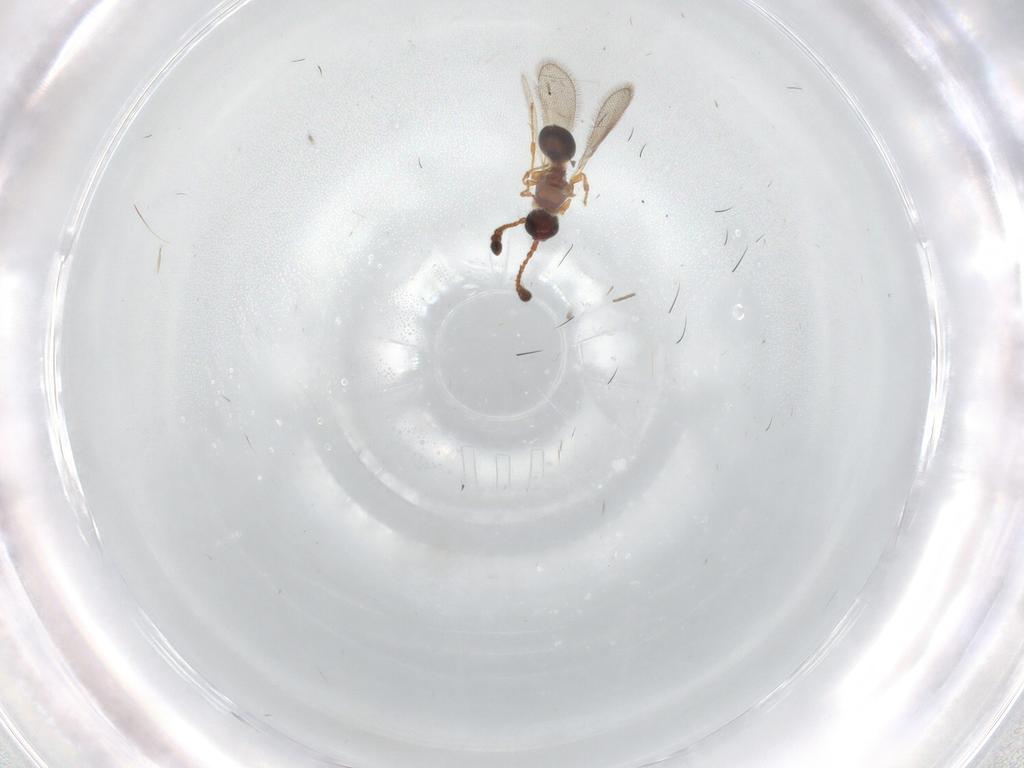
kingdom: Animalia
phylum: Arthropoda
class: Insecta
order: Hymenoptera
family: Diapriidae
